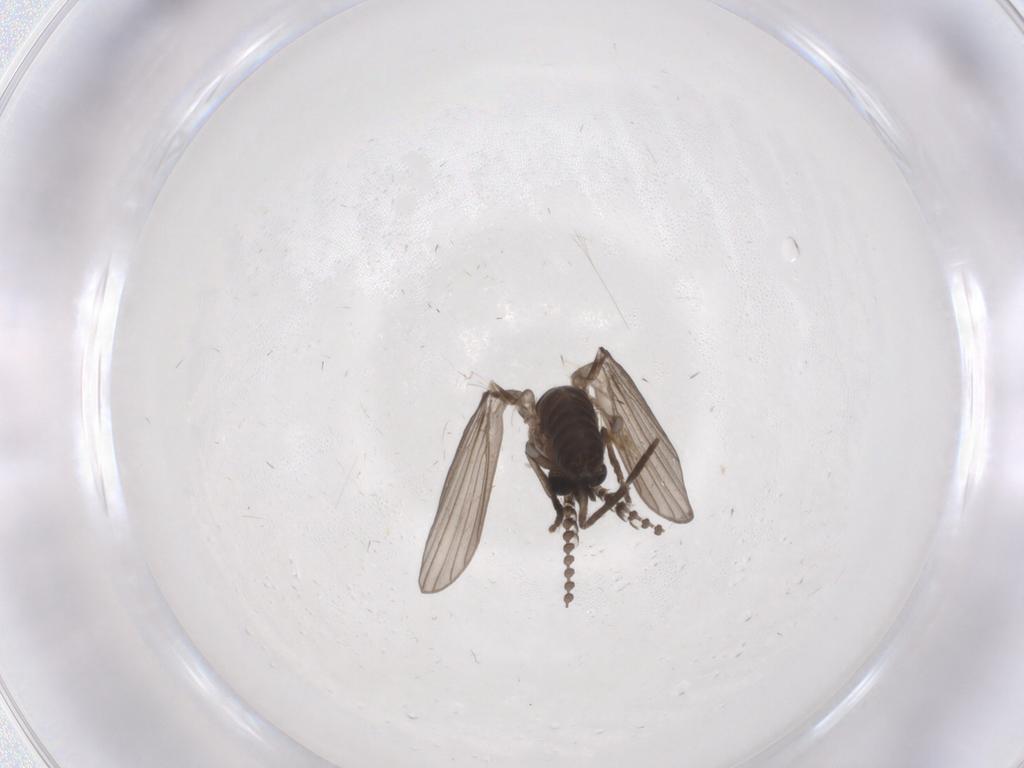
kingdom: Animalia
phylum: Arthropoda
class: Insecta
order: Diptera
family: Psychodidae
